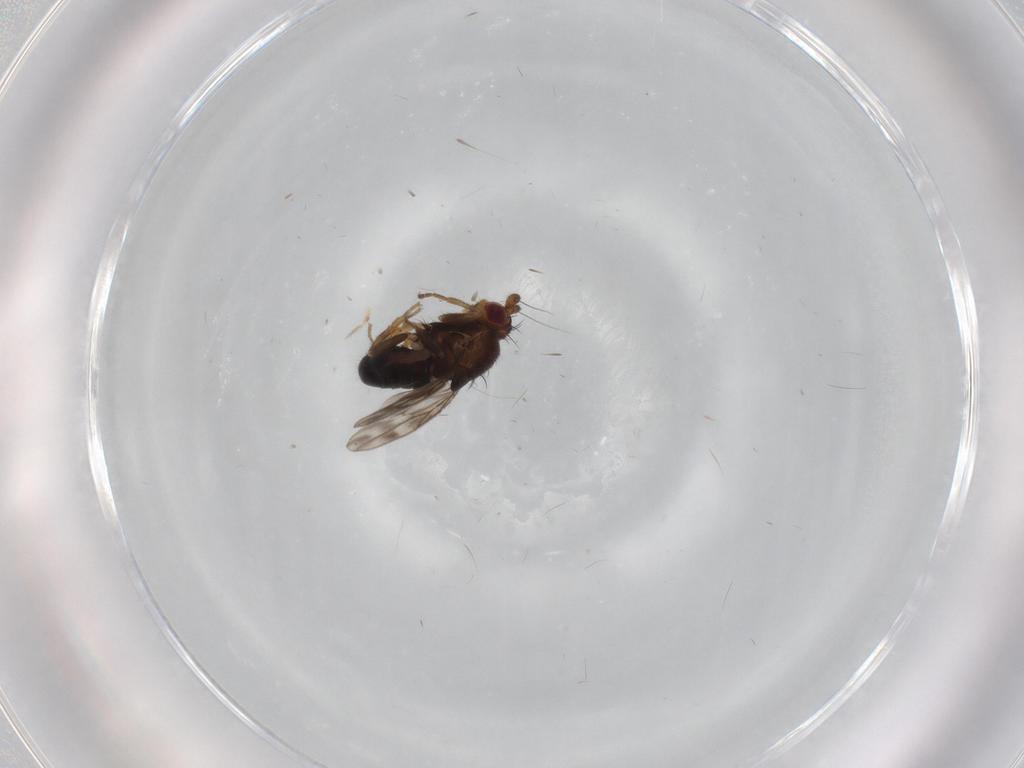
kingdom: Animalia
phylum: Arthropoda
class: Insecta
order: Diptera
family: Sphaeroceridae
